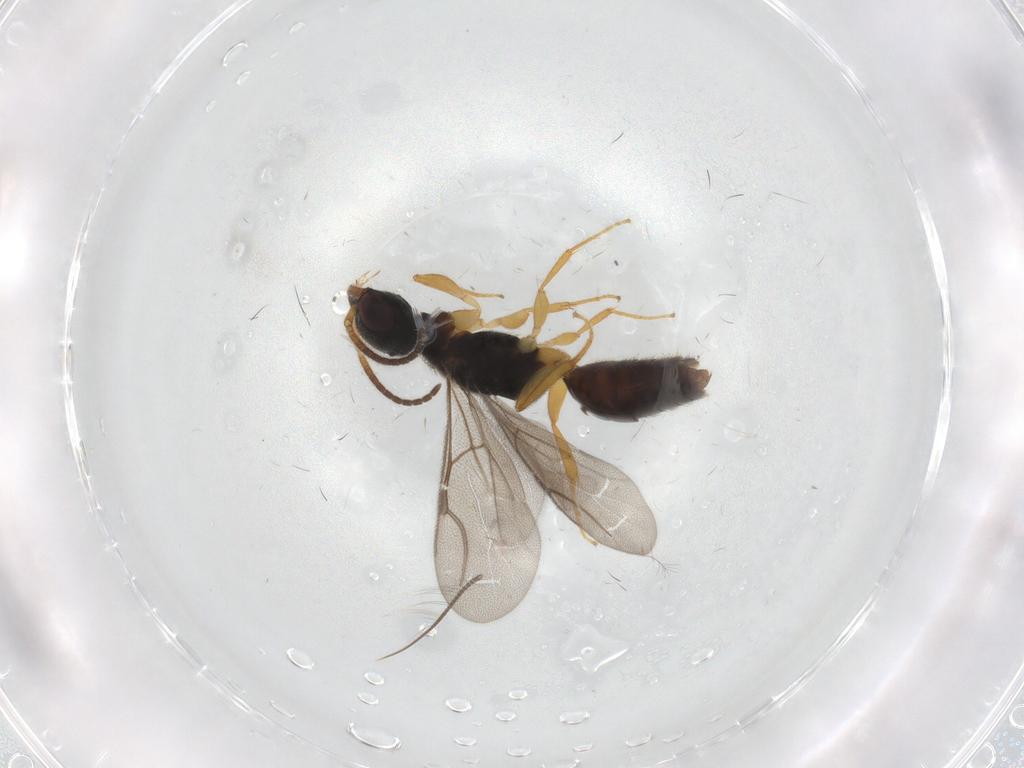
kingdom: Animalia
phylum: Arthropoda
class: Insecta
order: Hymenoptera
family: Bethylidae
